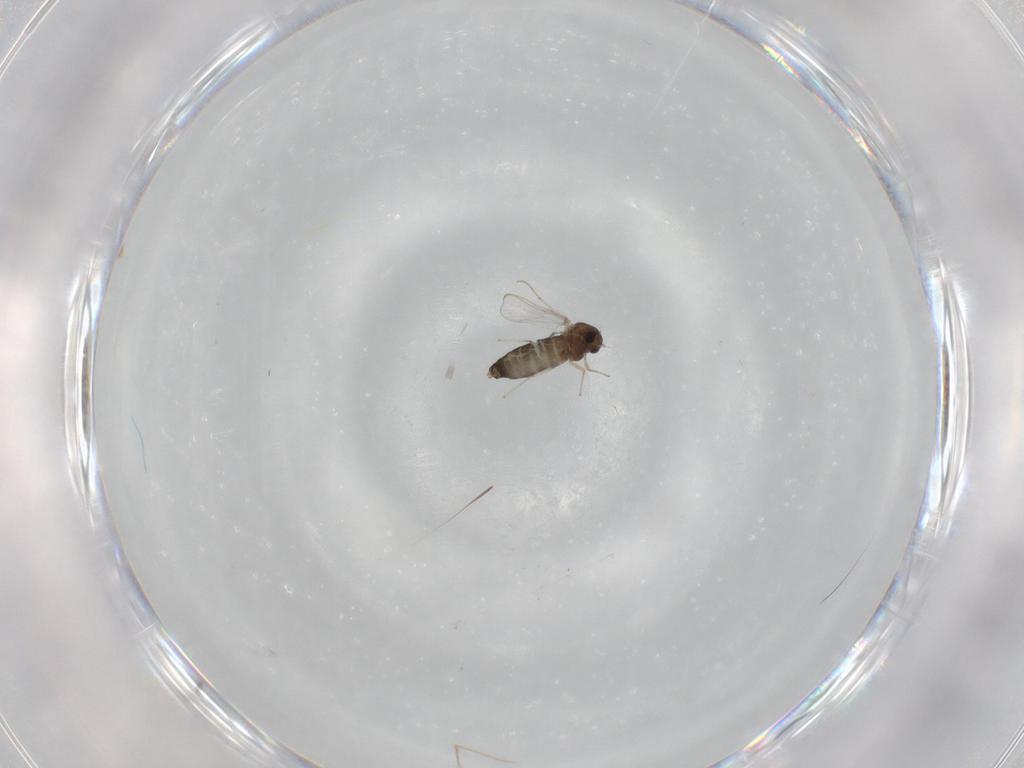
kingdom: Animalia
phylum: Arthropoda
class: Insecta
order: Diptera
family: Chironomidae
